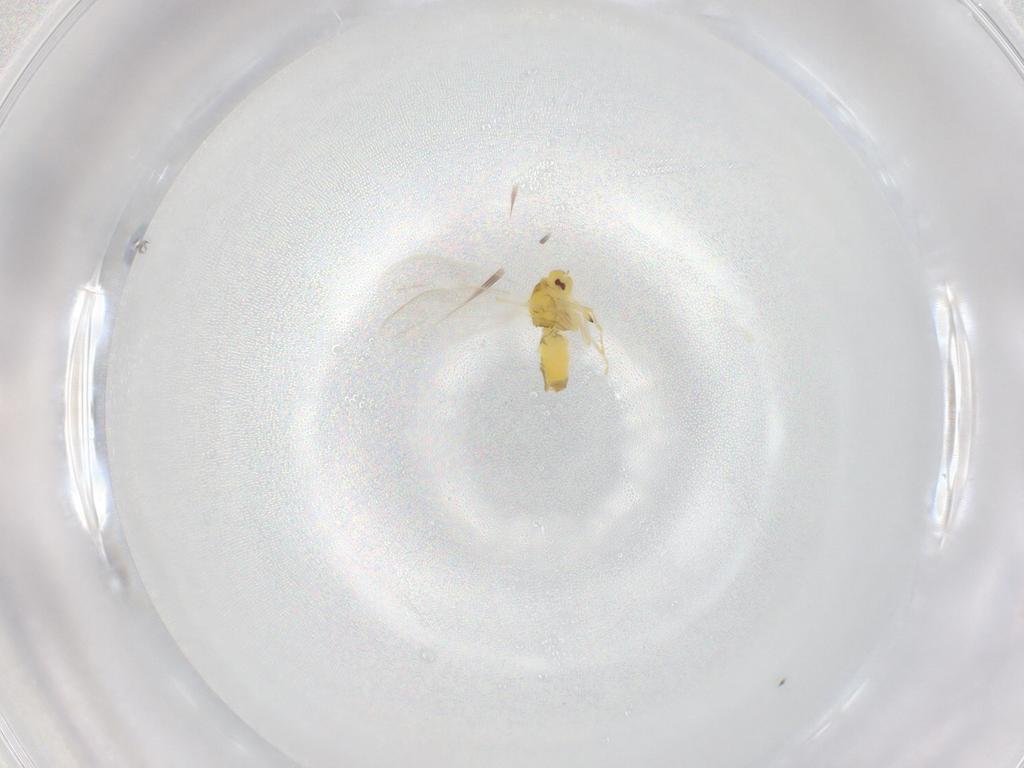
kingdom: Animalia
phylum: Arthropoda
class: Insecta
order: Hemiptera
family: Aleyrodidae
